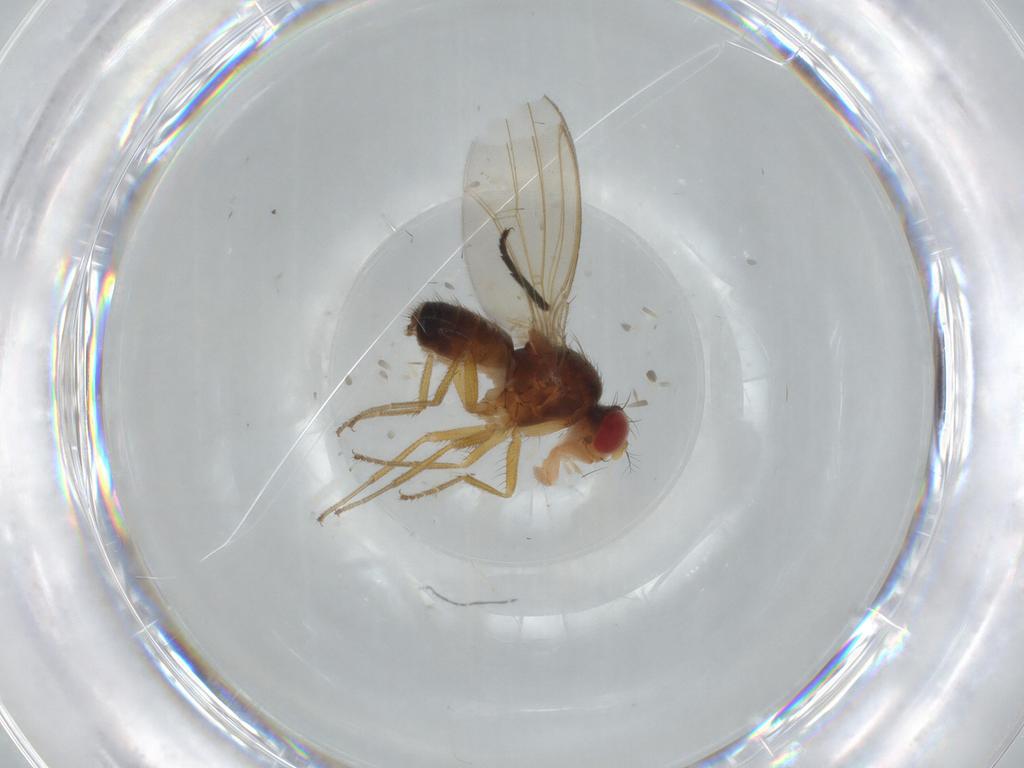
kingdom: Animalia
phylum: Arthropoda
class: Insecta
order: Diptera
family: Drosophilidae
